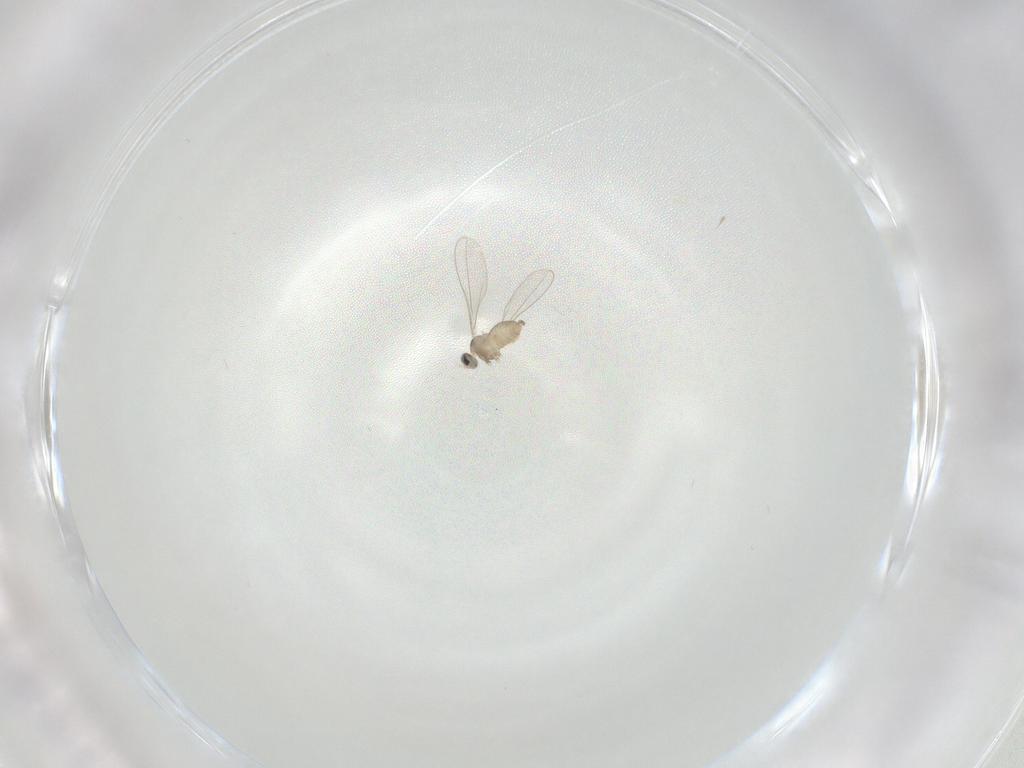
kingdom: Animalia
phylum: Arthropoda
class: Insecta
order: Diptera
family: Cecidomyiidae
